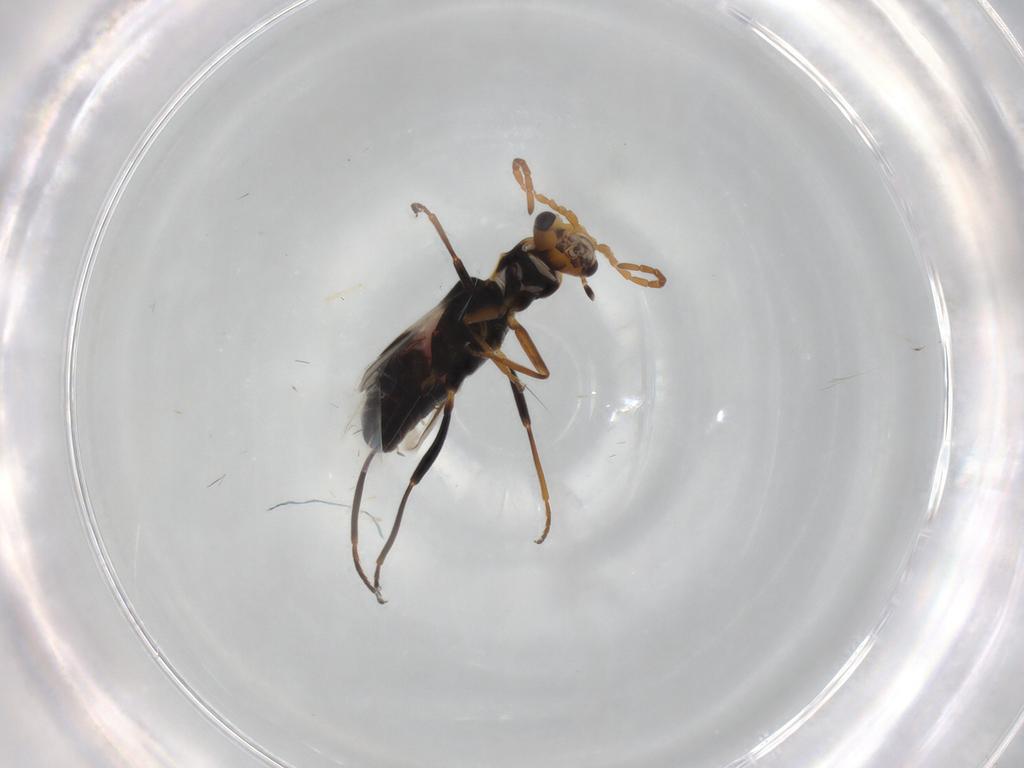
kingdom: Animalia
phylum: Arthropoda
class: Insecta
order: Coleoptera
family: Melyridae
